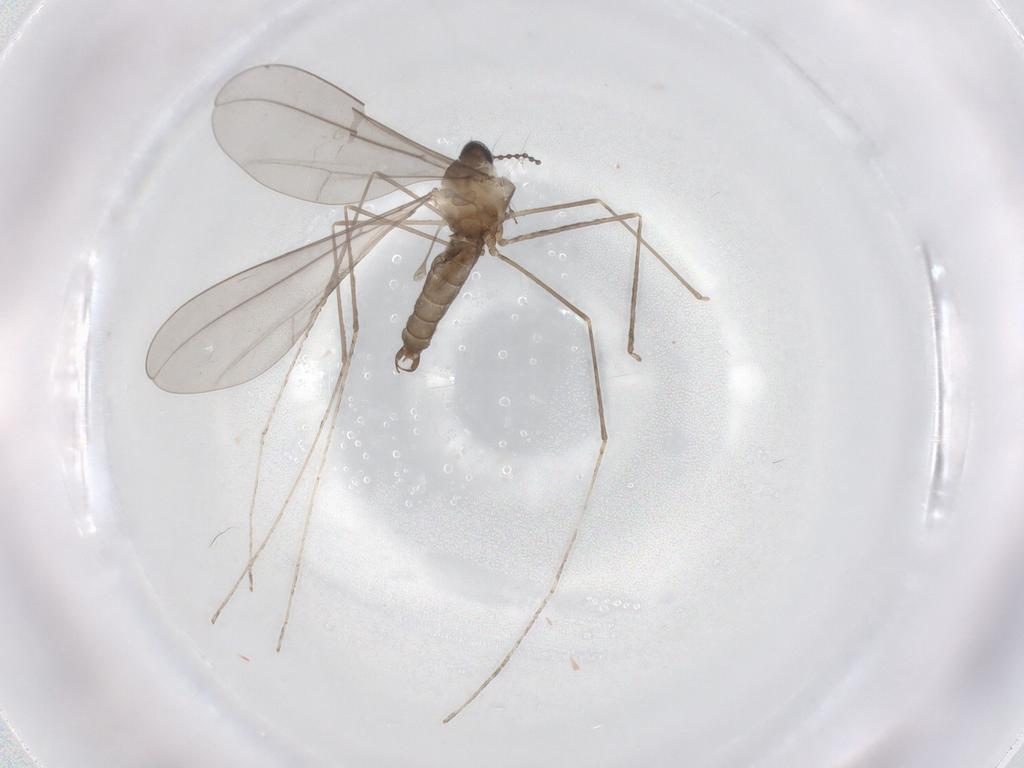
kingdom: Animalia
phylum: Arthropoda
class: Insecta
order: Diptera
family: Cecidomyiidae
